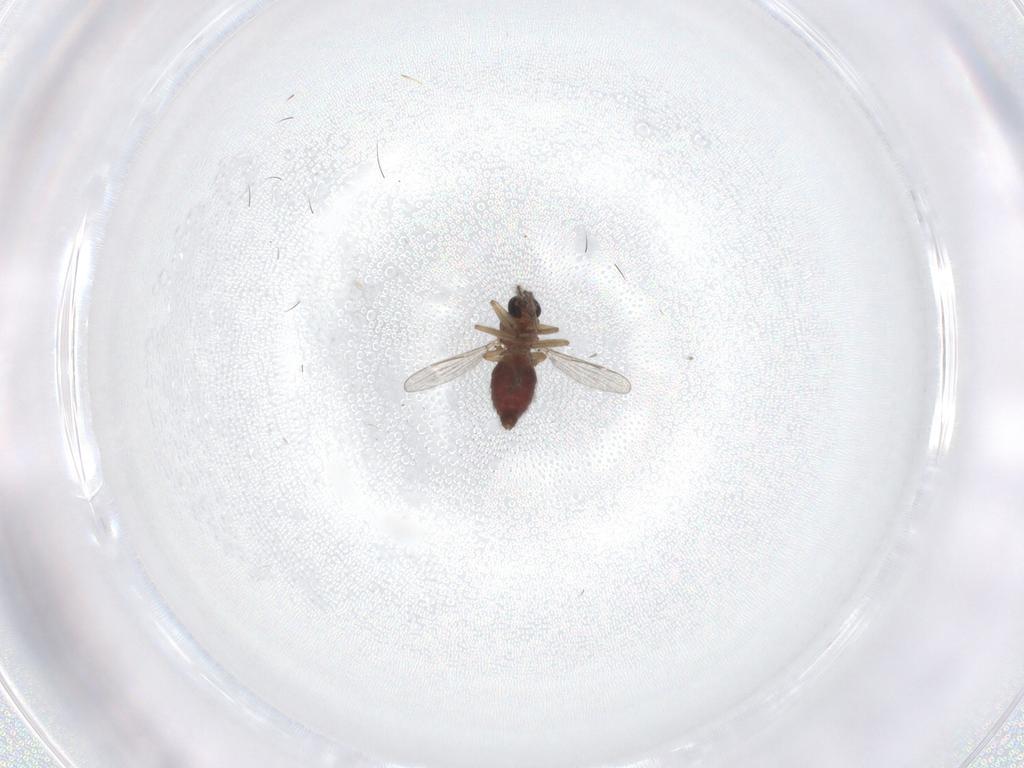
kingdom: Animalia
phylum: Arthropoda
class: Insecta
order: Diptera
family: Ceratopogonidae
